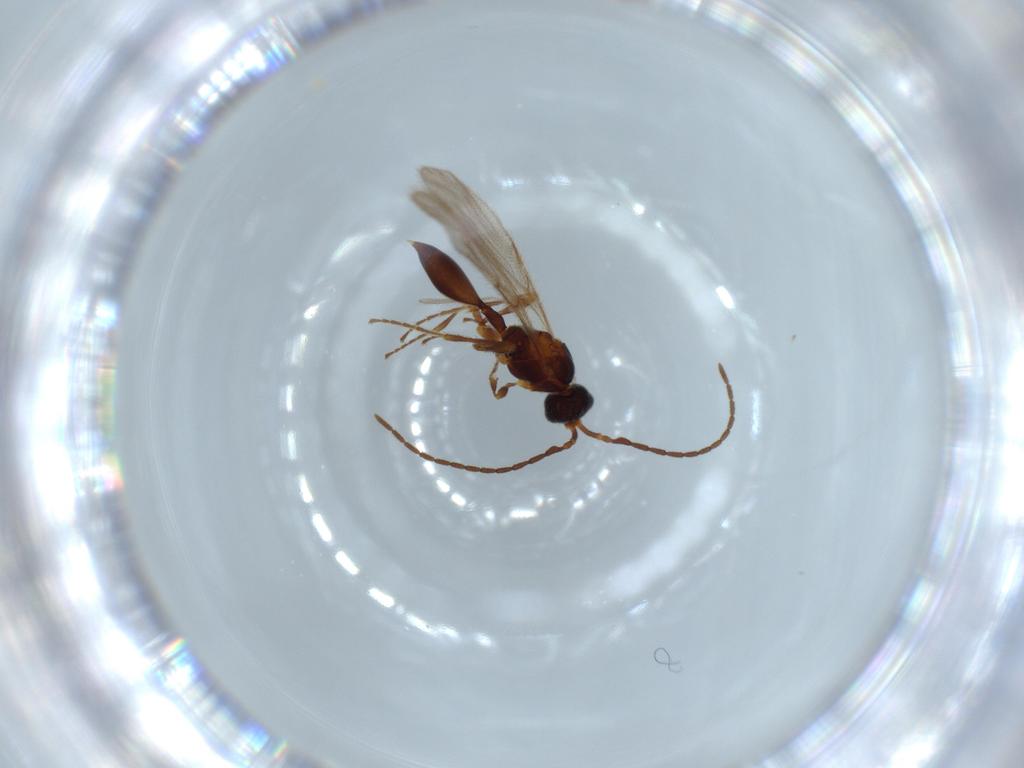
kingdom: Animalia
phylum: Arthropoda
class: Insecta
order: Hymenoptera
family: Diapriidae
